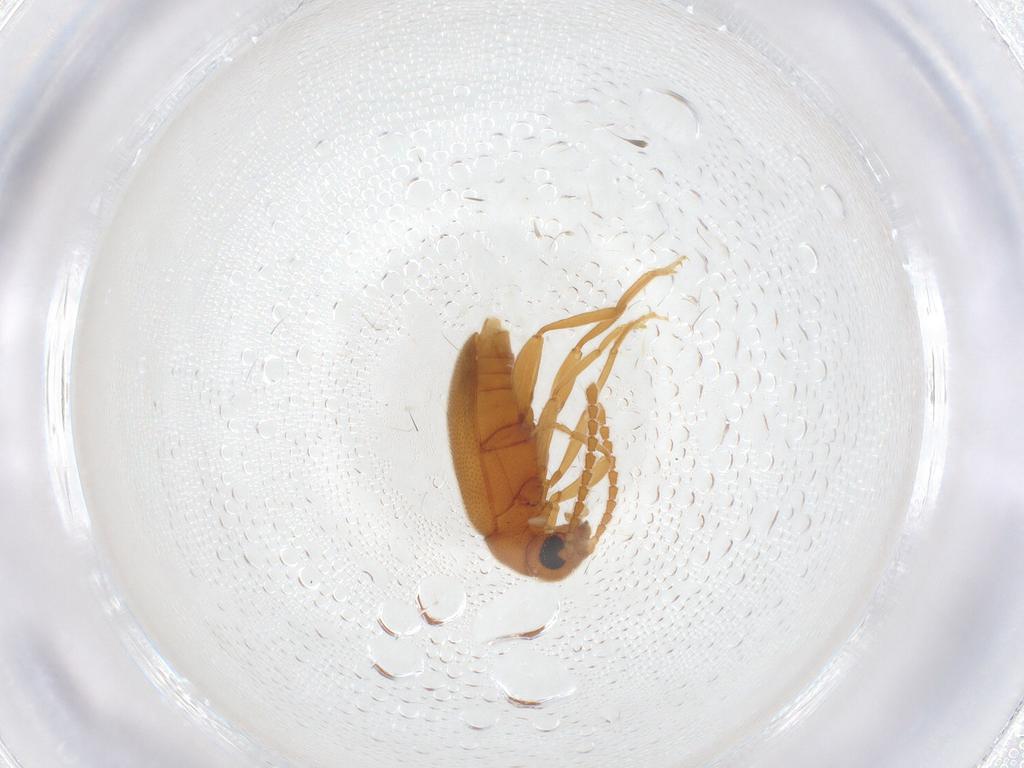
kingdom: Animalia
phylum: Arthropoda
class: Insecta
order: Coleoptera
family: Aderidae
